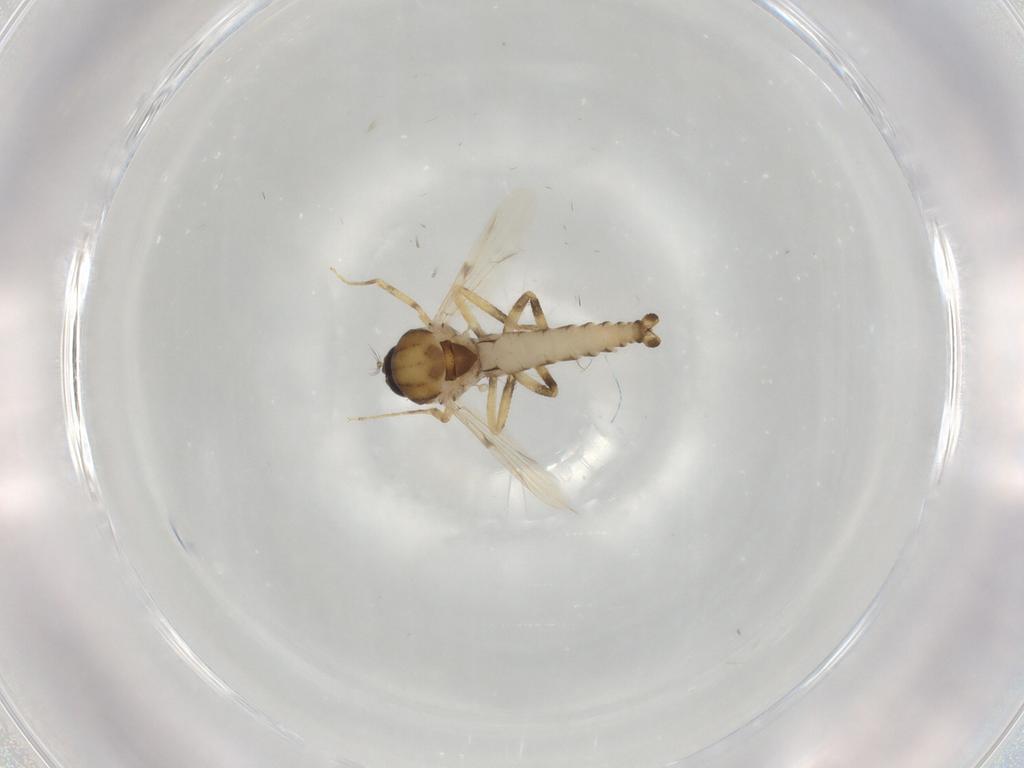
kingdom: Animalia
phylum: Arthropoda
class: Insecta
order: Diptera
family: Ceratopogonidae
